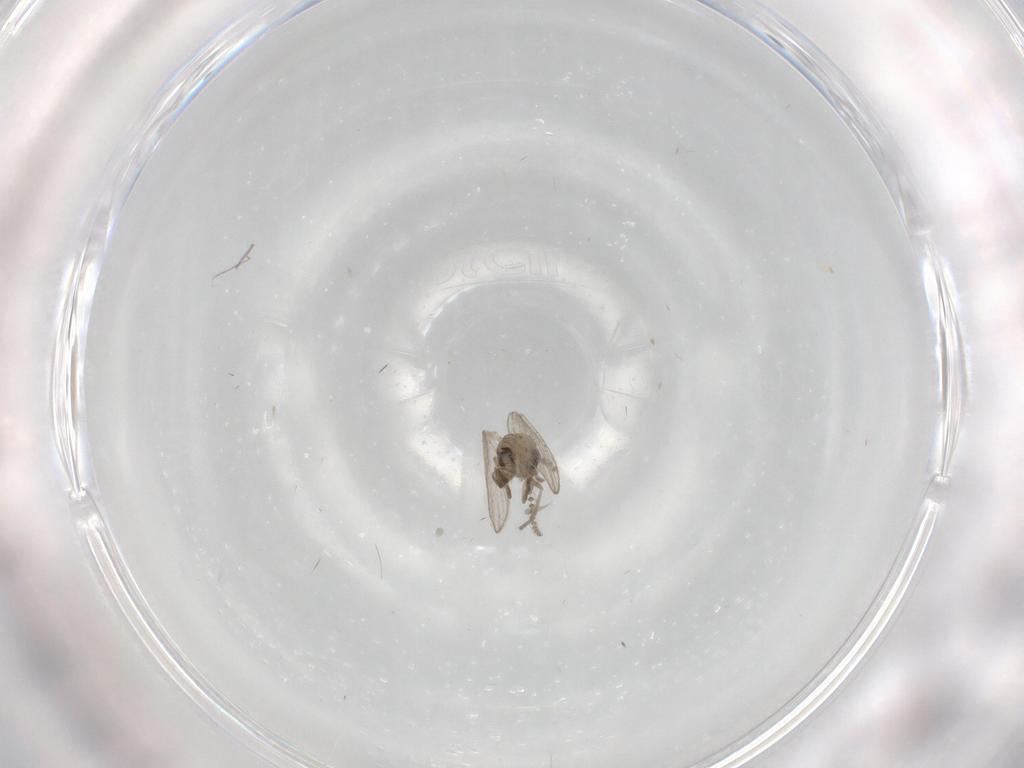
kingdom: Animalia
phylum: Arthropoda
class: Insecta
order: Diptera
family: Psychodidae
